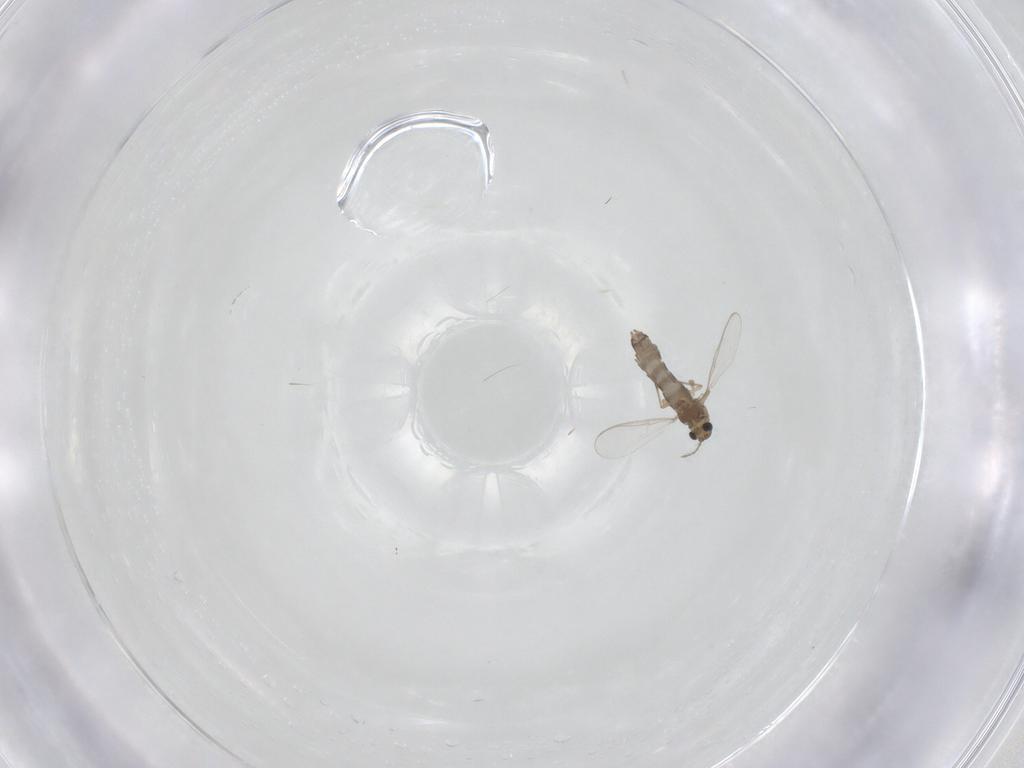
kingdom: Animalia
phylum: Arthropoda
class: Insecta
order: Diptera
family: Chironomidae
